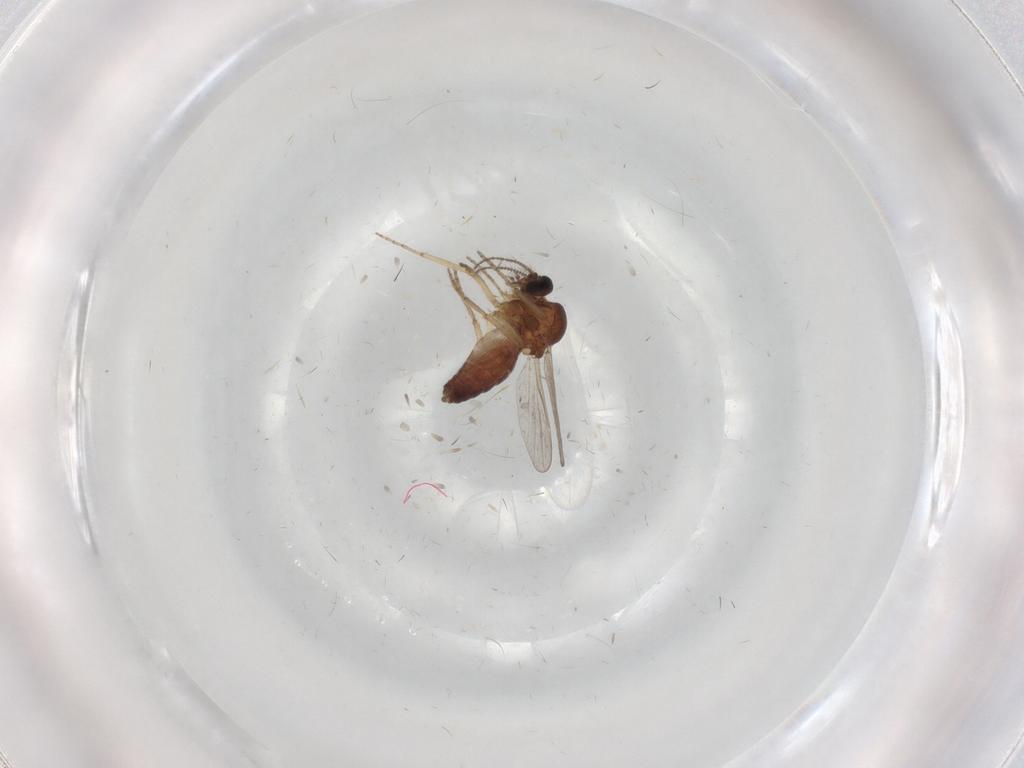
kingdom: Animalia
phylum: Arthropoda
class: Insecta
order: Diptera
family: Ceratopogonidae
